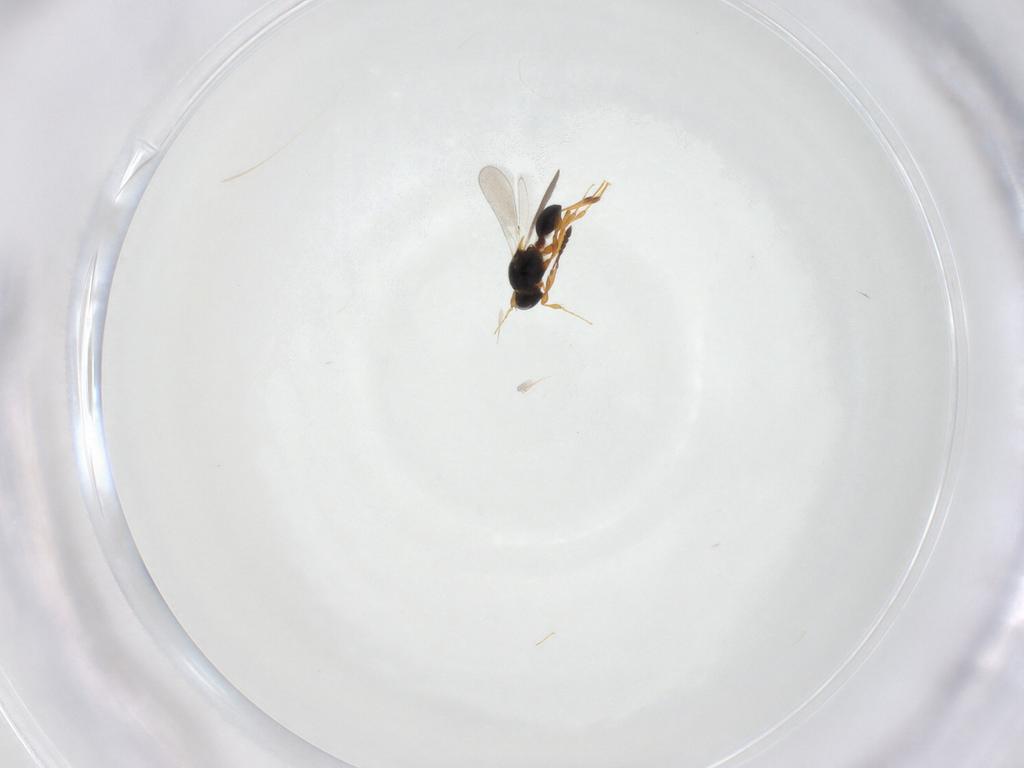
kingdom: Animalia
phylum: Arthropoda
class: Insecta
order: Hymenoptera
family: Platygastridae
